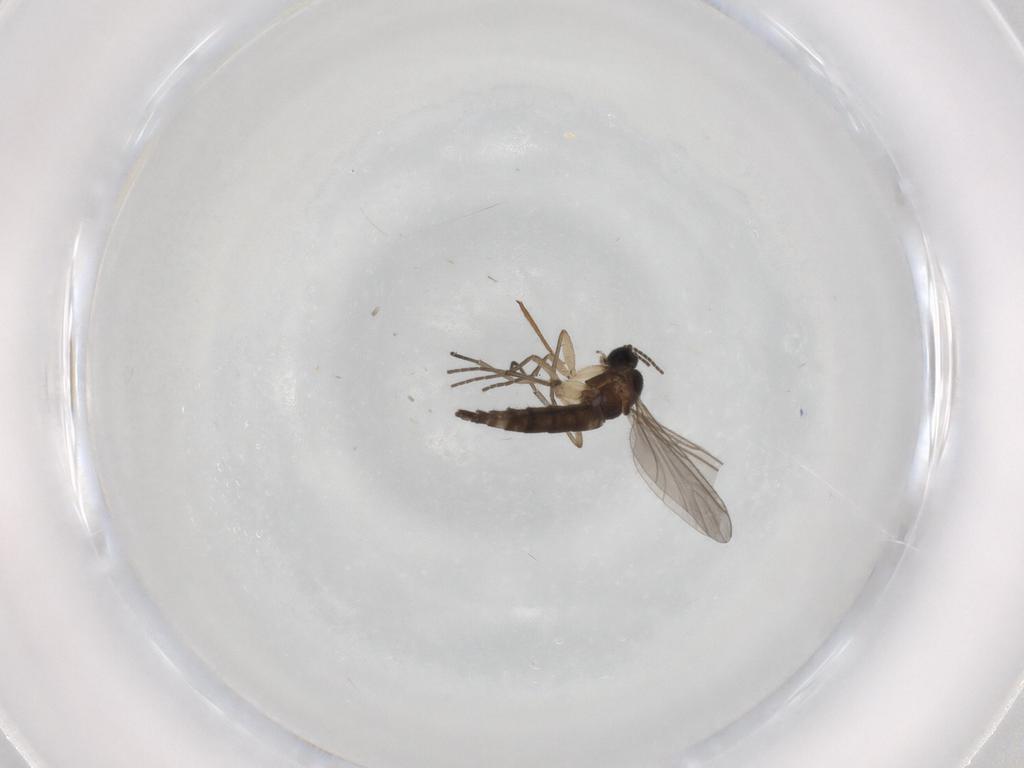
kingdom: Animalia
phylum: Arthropoda
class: Insecta
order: Diptera
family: Sciaridae
